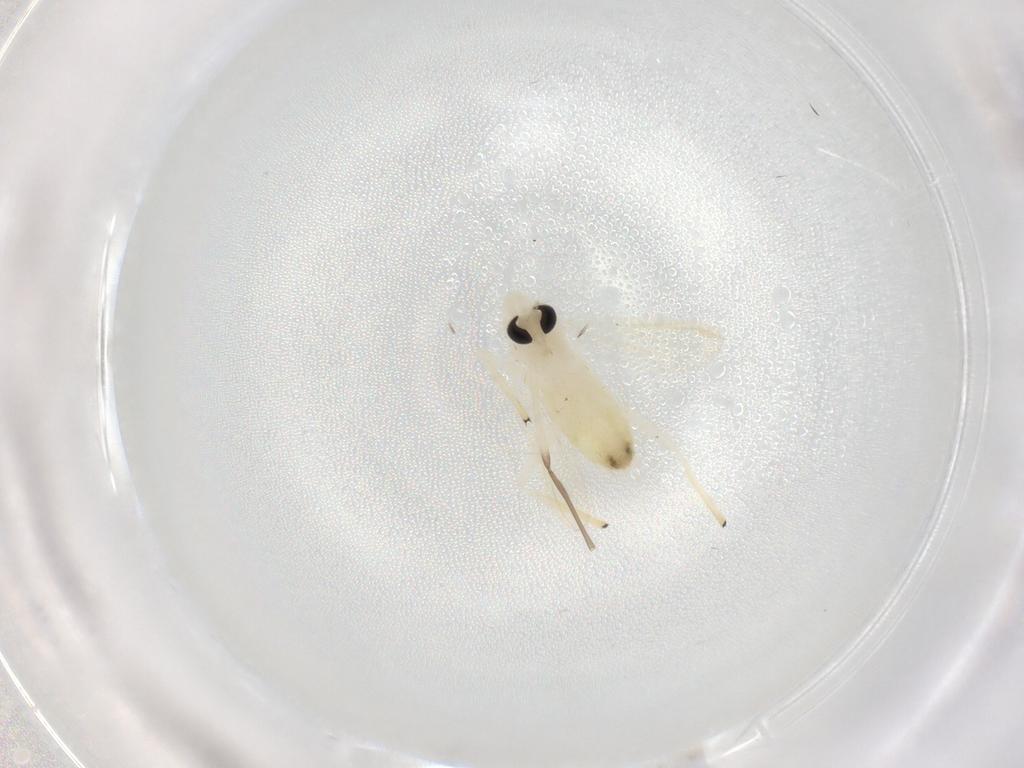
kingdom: Animalia
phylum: Arthropoda
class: Insecta
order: Diptera
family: Chironomidae
